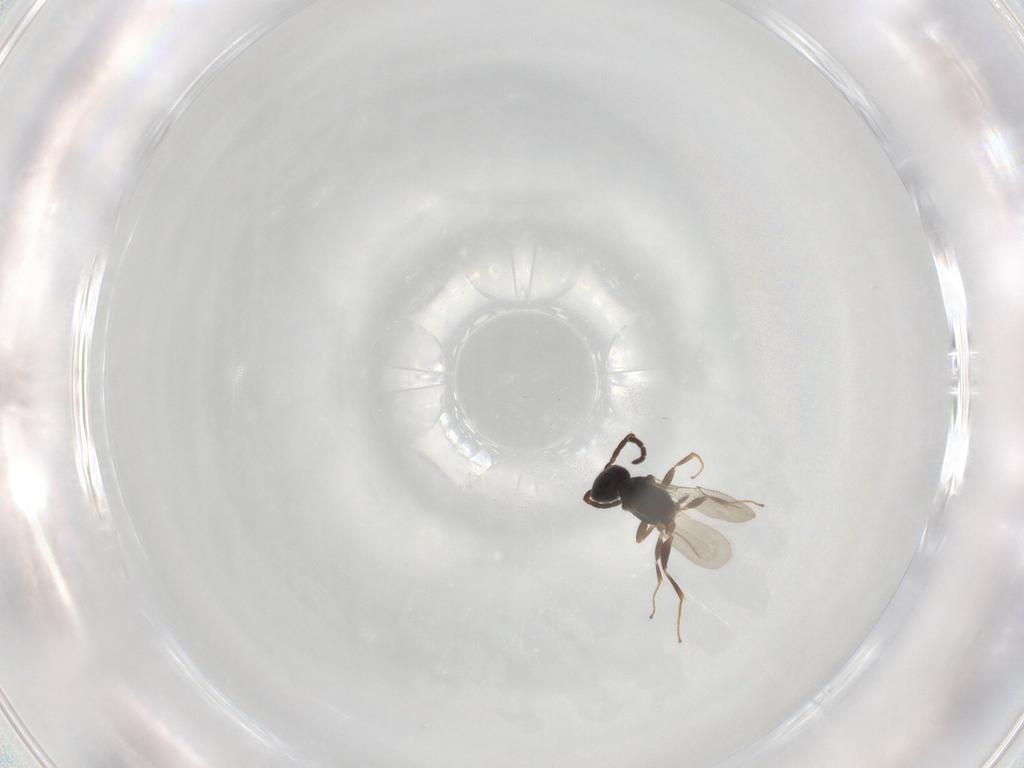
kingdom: Animalia
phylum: Arthropoda
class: Insecta
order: Hymenoptera
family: Bethylidae
